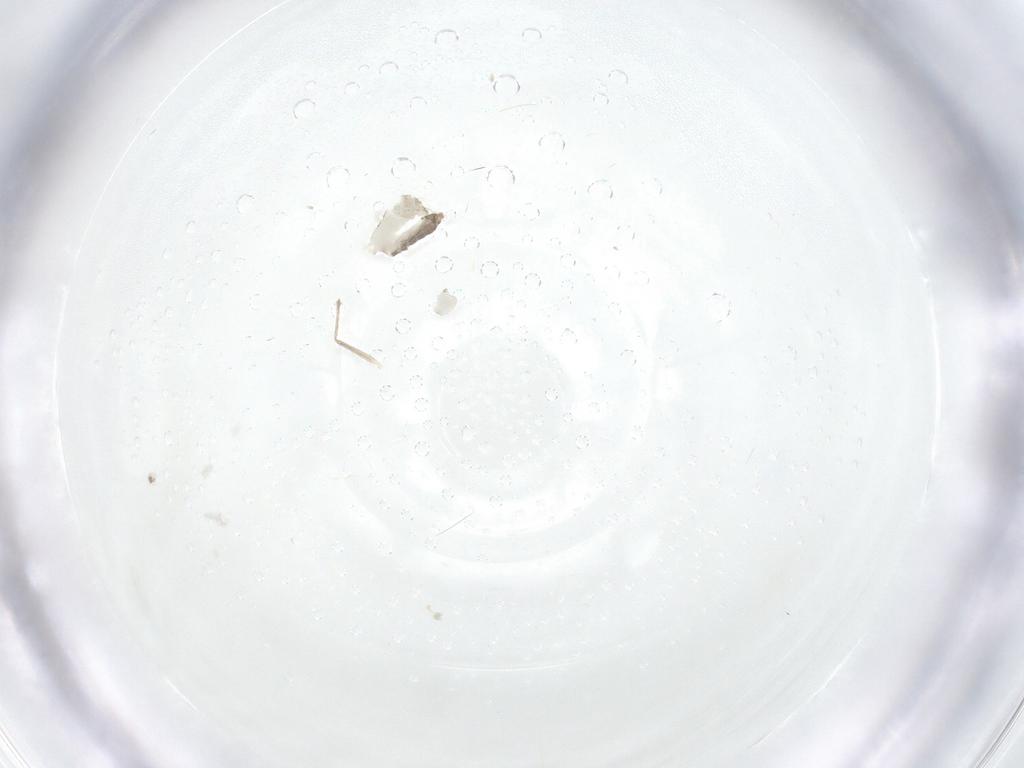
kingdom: Animalia
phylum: Arthropoda
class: Insecta
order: Diptera
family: Chironomidae
